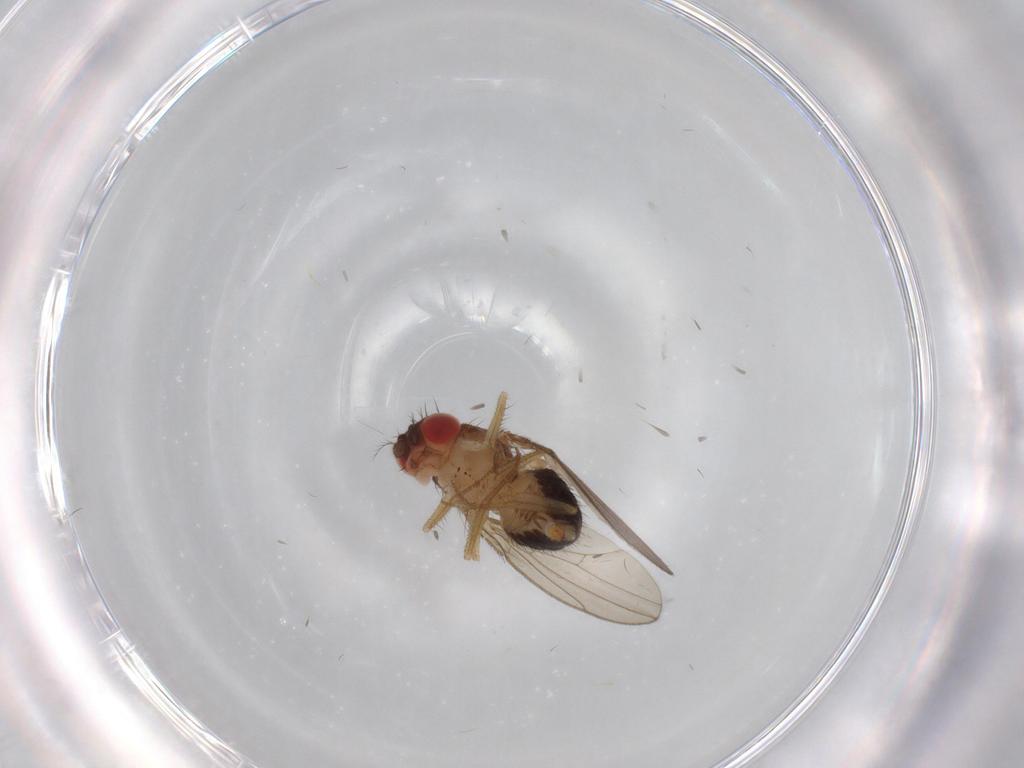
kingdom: Animalia
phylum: Arthropoda
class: Insecta
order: Diptera
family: Drosophilidae
